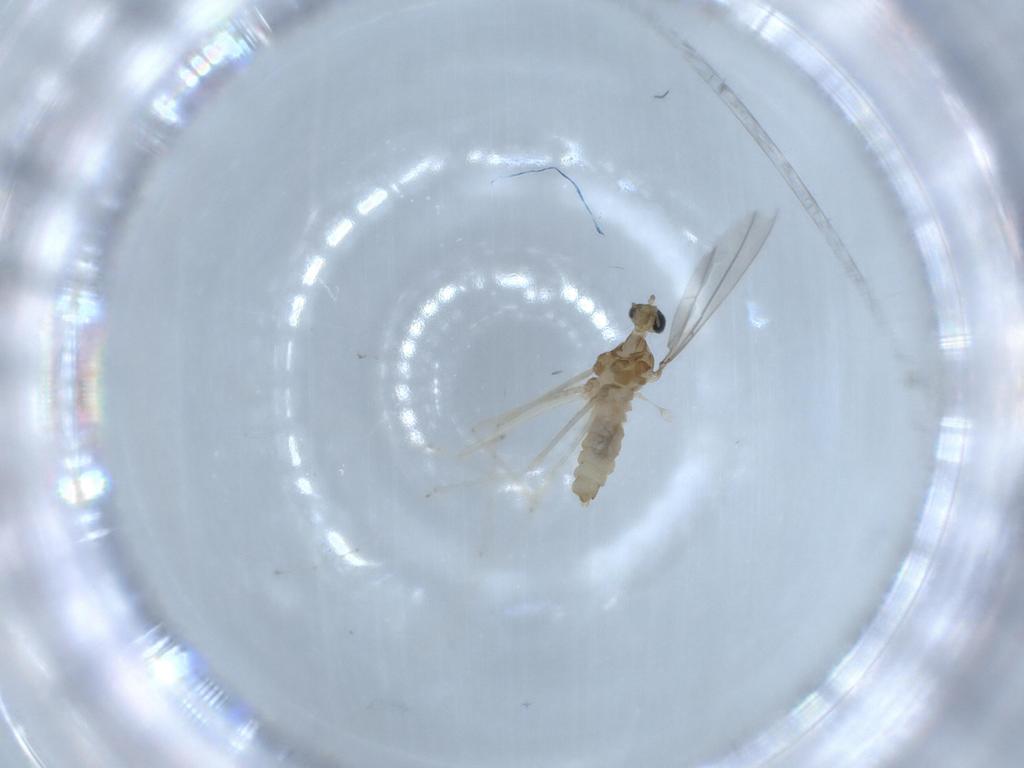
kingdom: Animalia
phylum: Arthropoda
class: Insecta
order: Diptera
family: Cecidomyiidae
